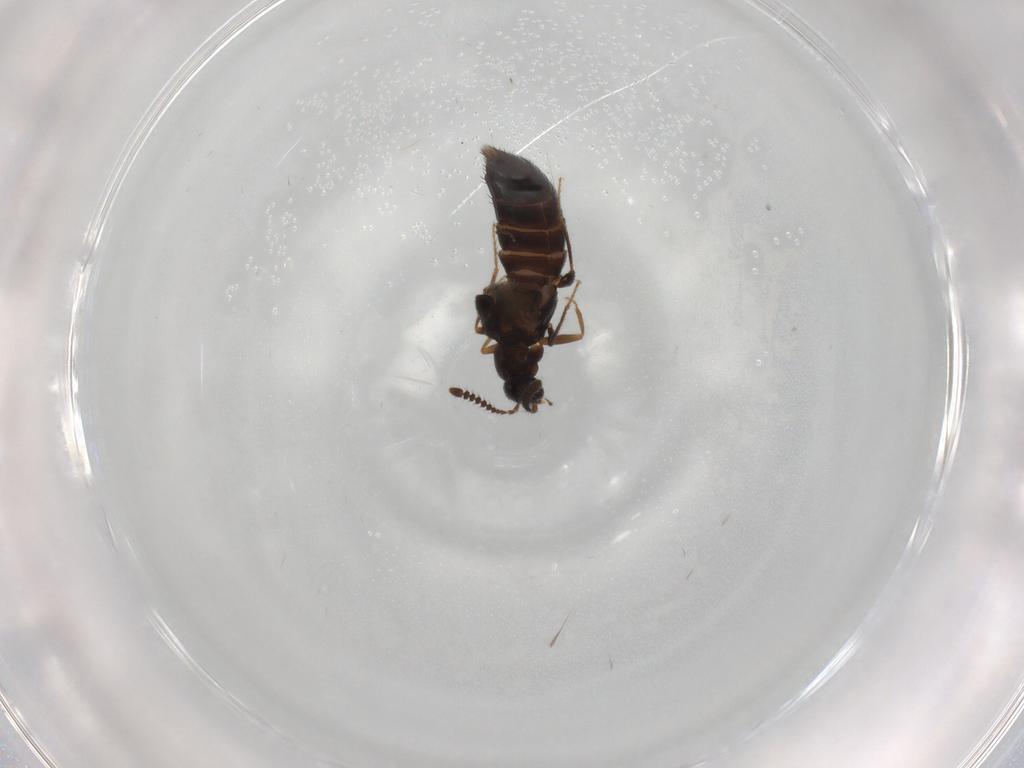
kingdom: Animalia
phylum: Arthropoda
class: Insecta
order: Coleoptera
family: Staphylinidae
